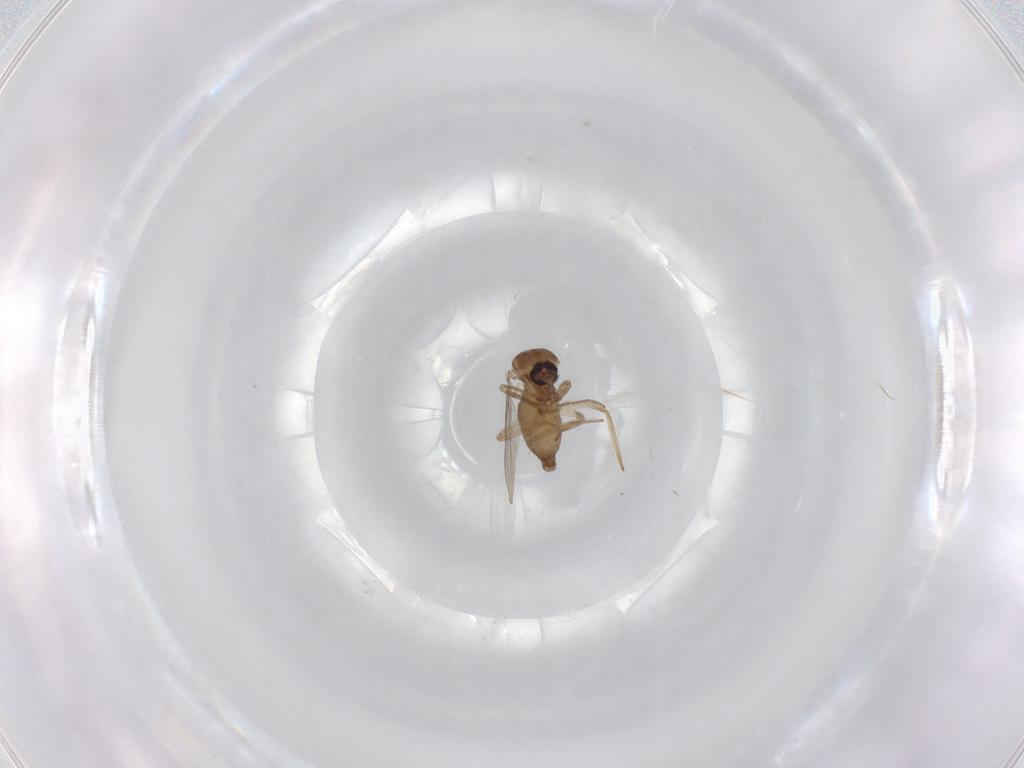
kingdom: Animalia
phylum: Arthropoda
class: Insecta
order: Diptera
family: Ceratopogonidae
